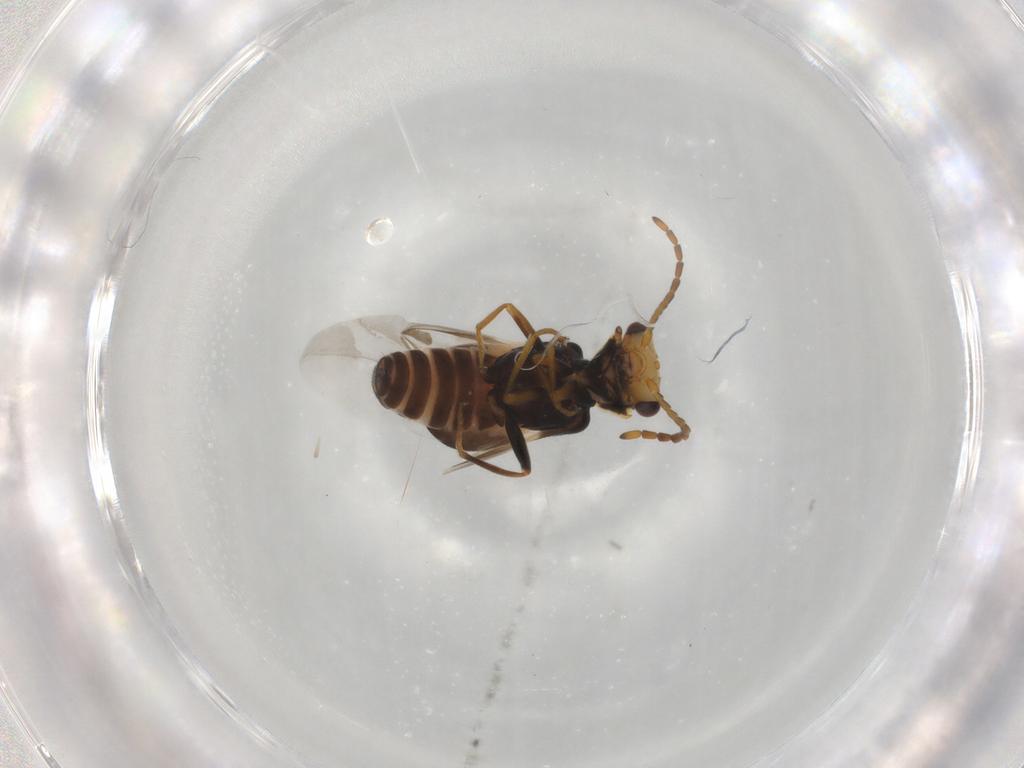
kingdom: Animalia
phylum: Arthropoda
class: Insecta
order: Coleoptera
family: Melyridae
